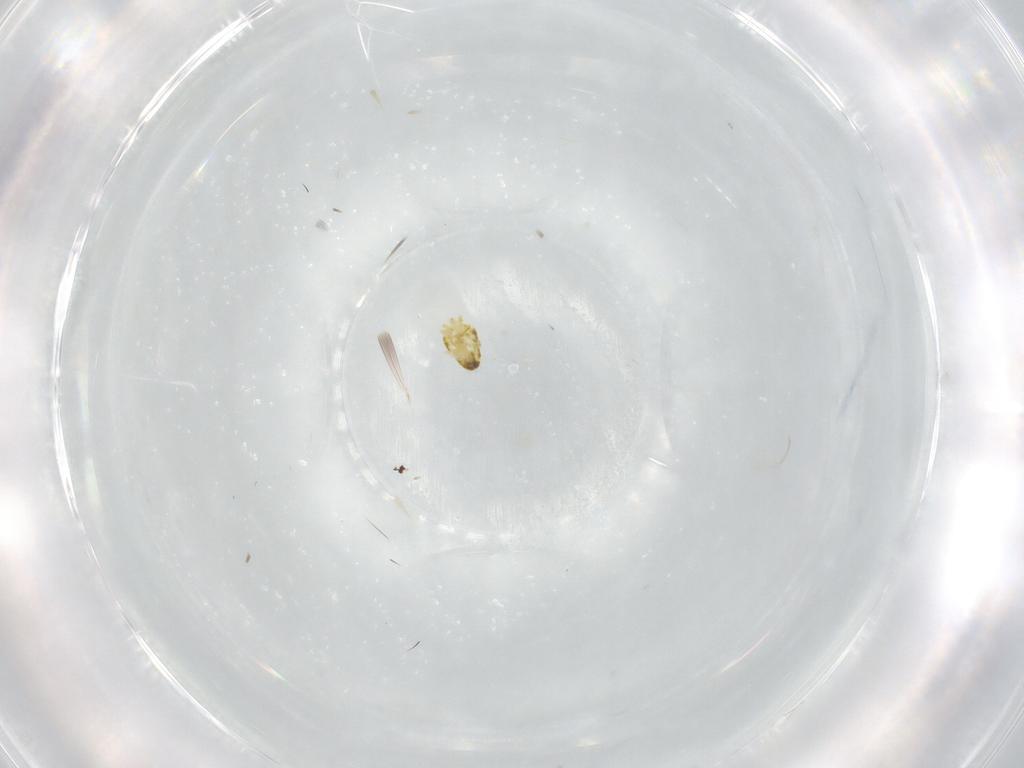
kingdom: Animalia
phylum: Arthropoda
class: Arachnida
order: Trombidiformes
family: Tetranychidae
